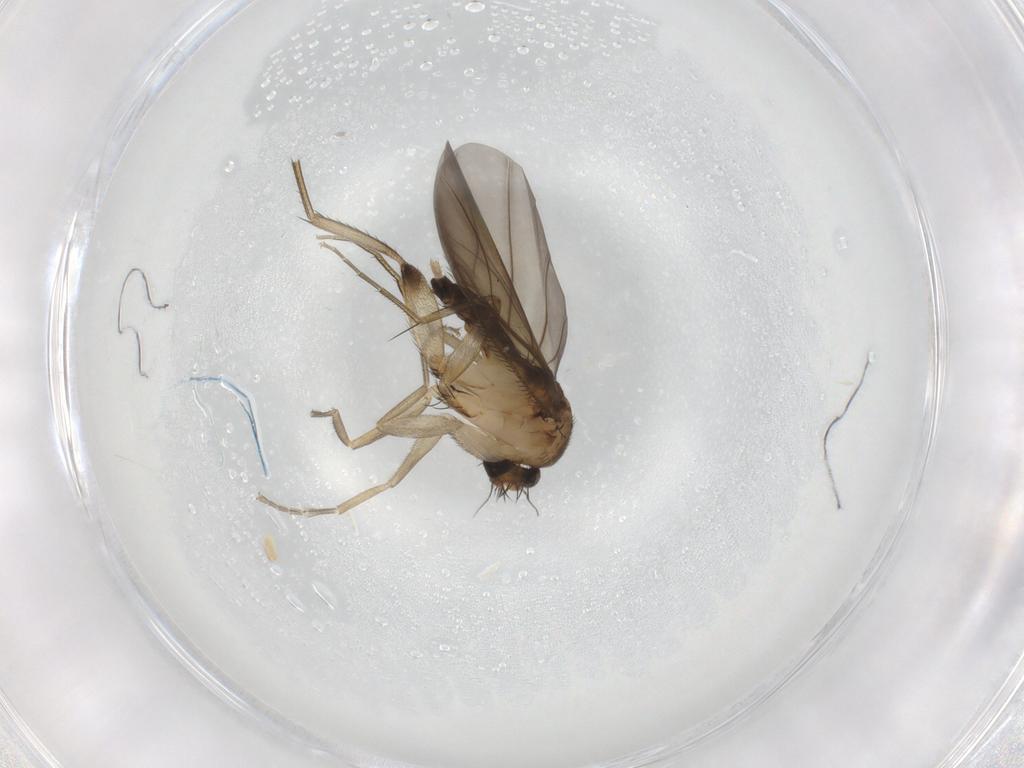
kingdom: Animalia
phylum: Arthropoda
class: Insecta
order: Diptera
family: Phoridae
